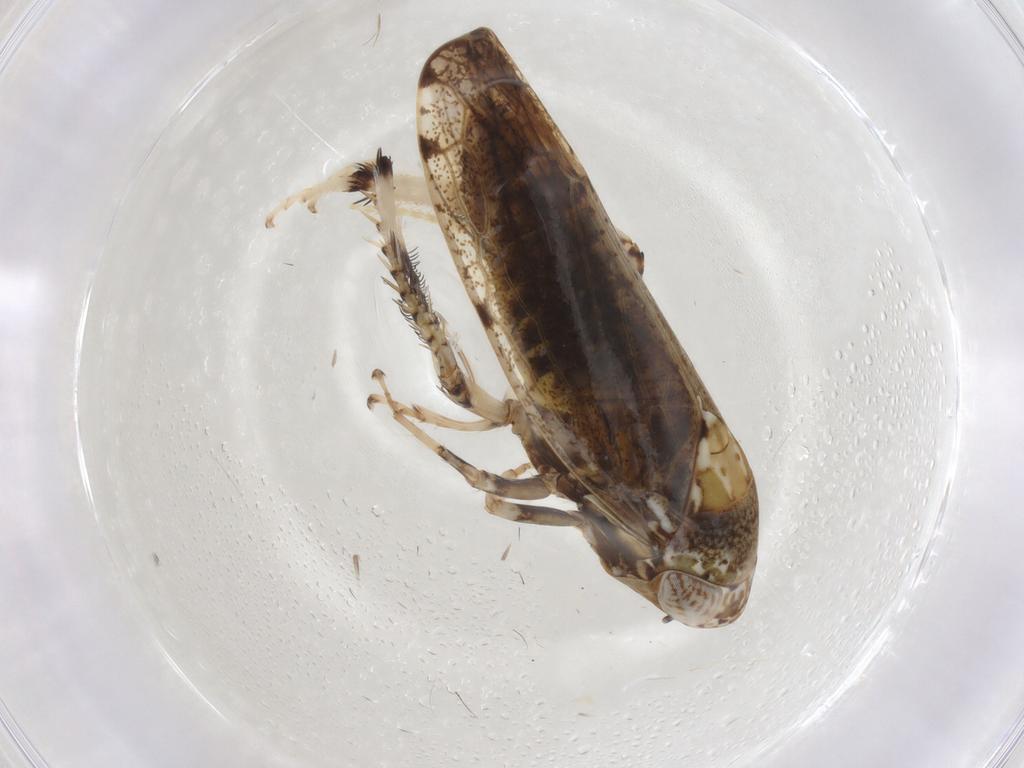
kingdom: Animalia
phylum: Arthropoda
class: Insecta
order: Hemiptera
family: Cicadellidae
